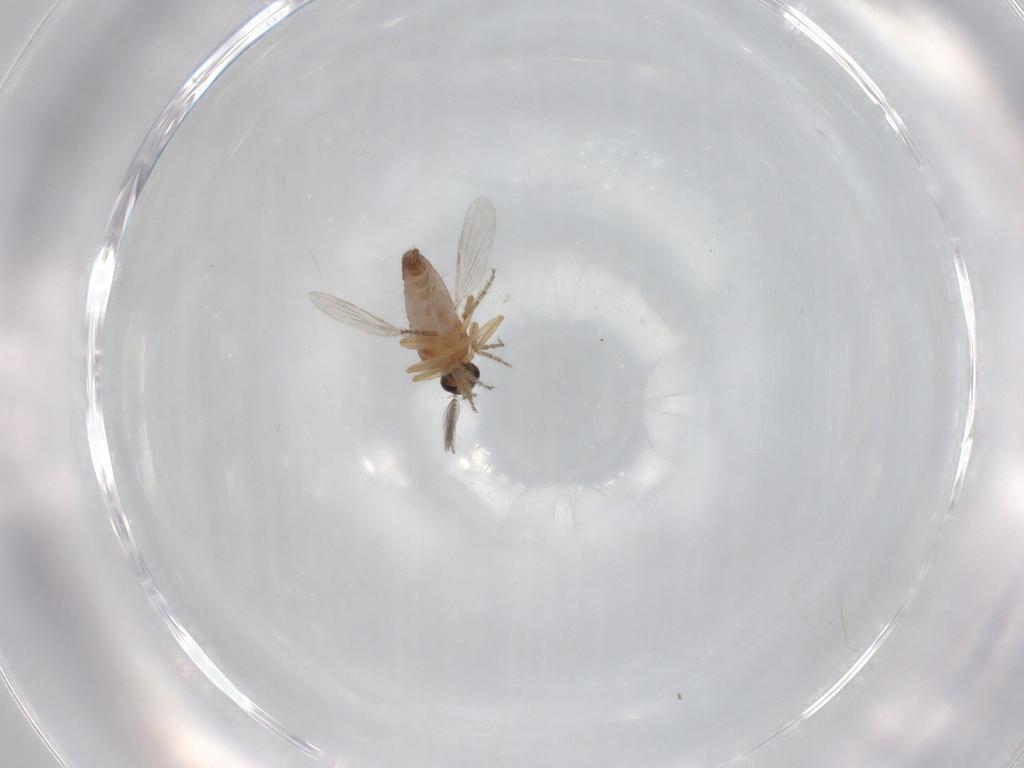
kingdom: Animalia
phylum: Arthropoda
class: Insecta
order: Diptera
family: Ceratopogonidae
